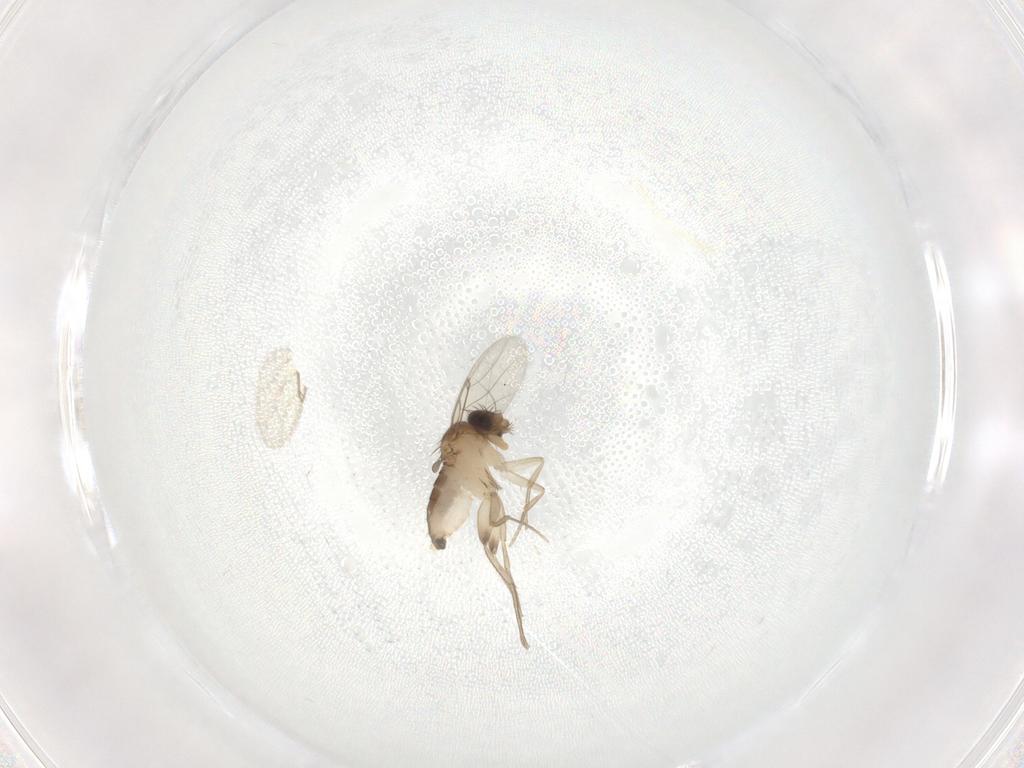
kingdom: Animalia
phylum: Arthropoda
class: Insecta
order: Diptera
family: Phoridae
